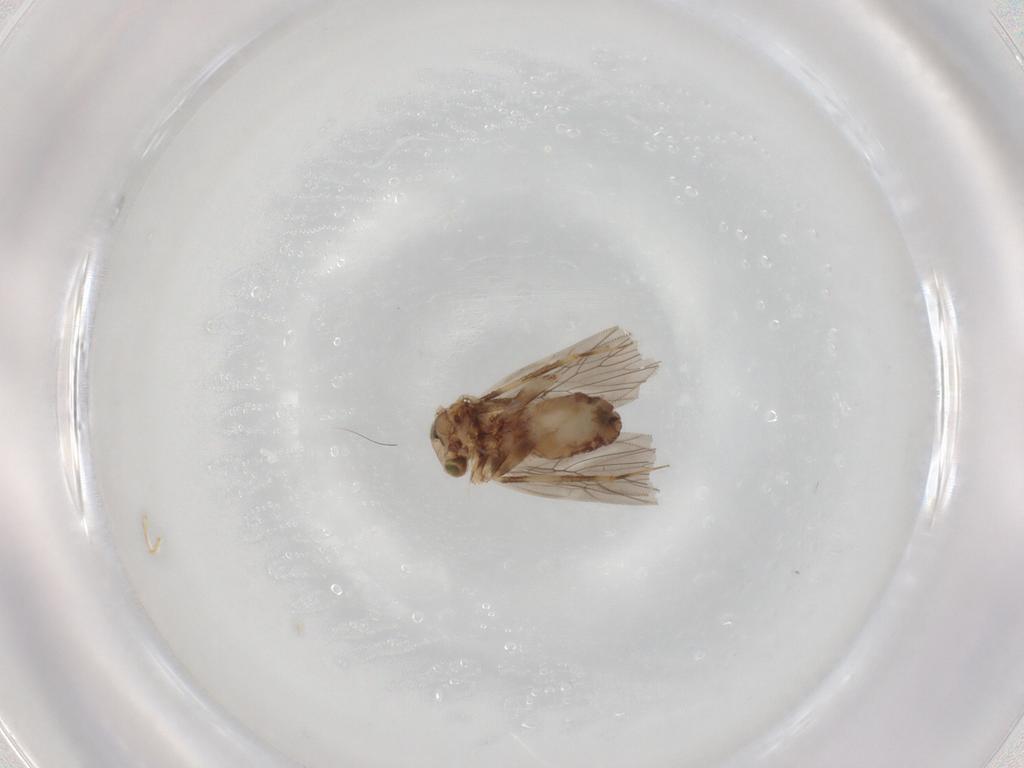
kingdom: Animalia
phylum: Arthropoda
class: Insecta
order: Psocodea
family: Lepidopsocidae
